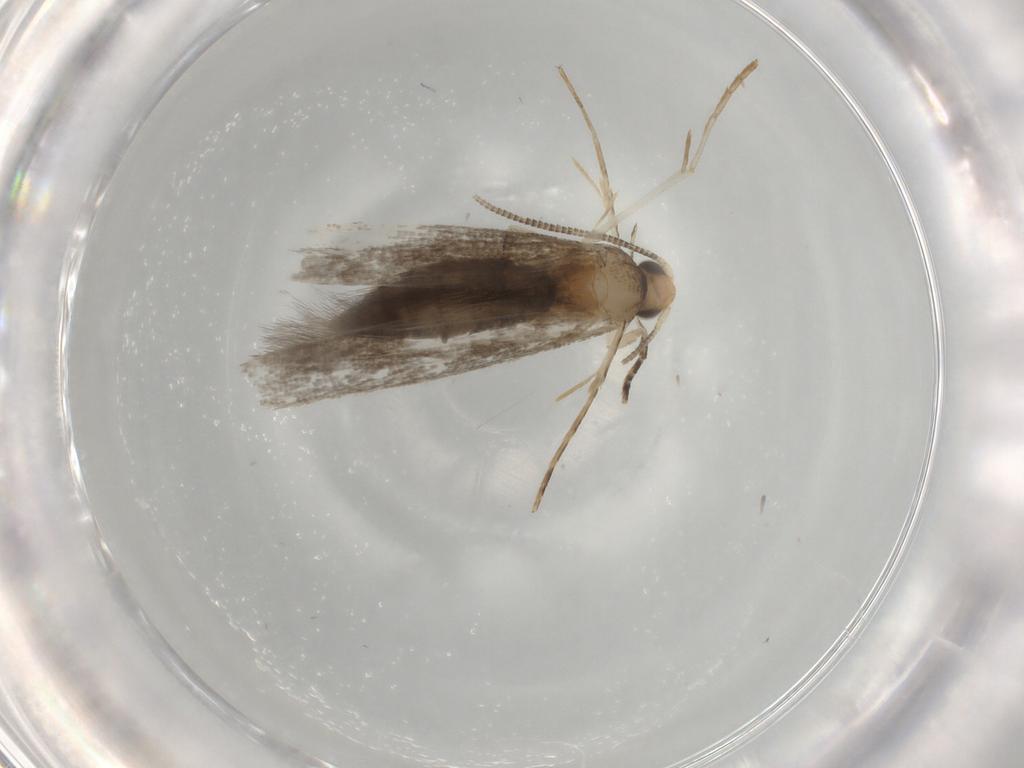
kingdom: Animalia
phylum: Arthropoda
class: Insecta
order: Lepidoptera
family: Tineidae
